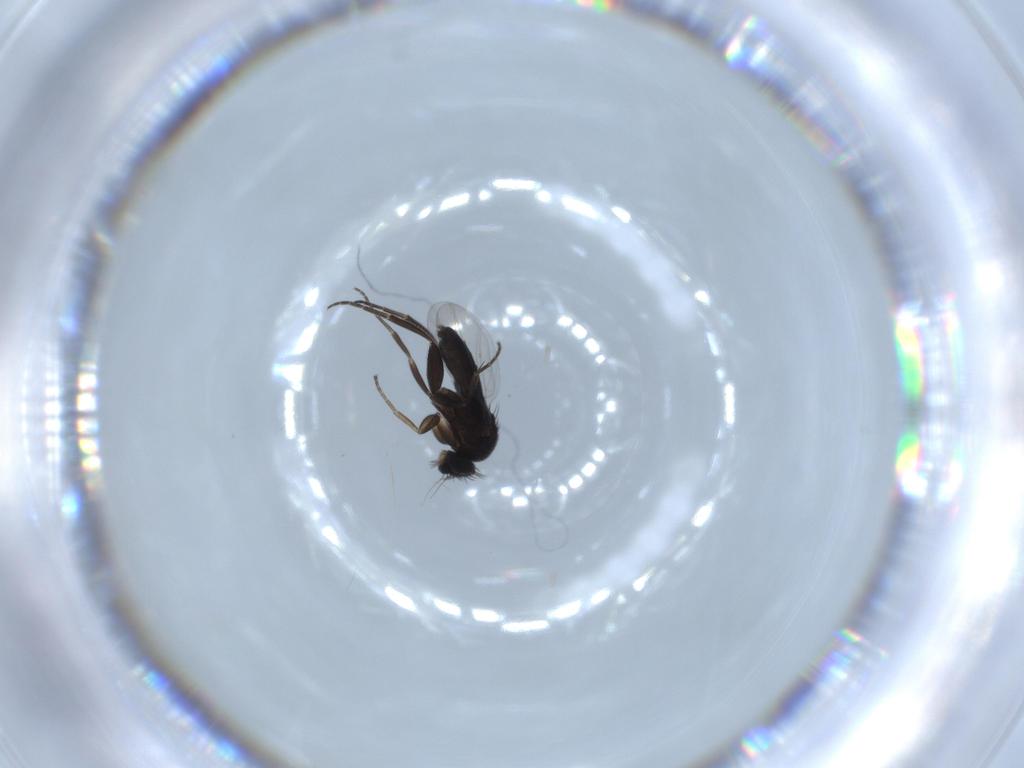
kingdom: Animalia
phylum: Arthropoda
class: Insecta
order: Diptera
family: Phoridae
